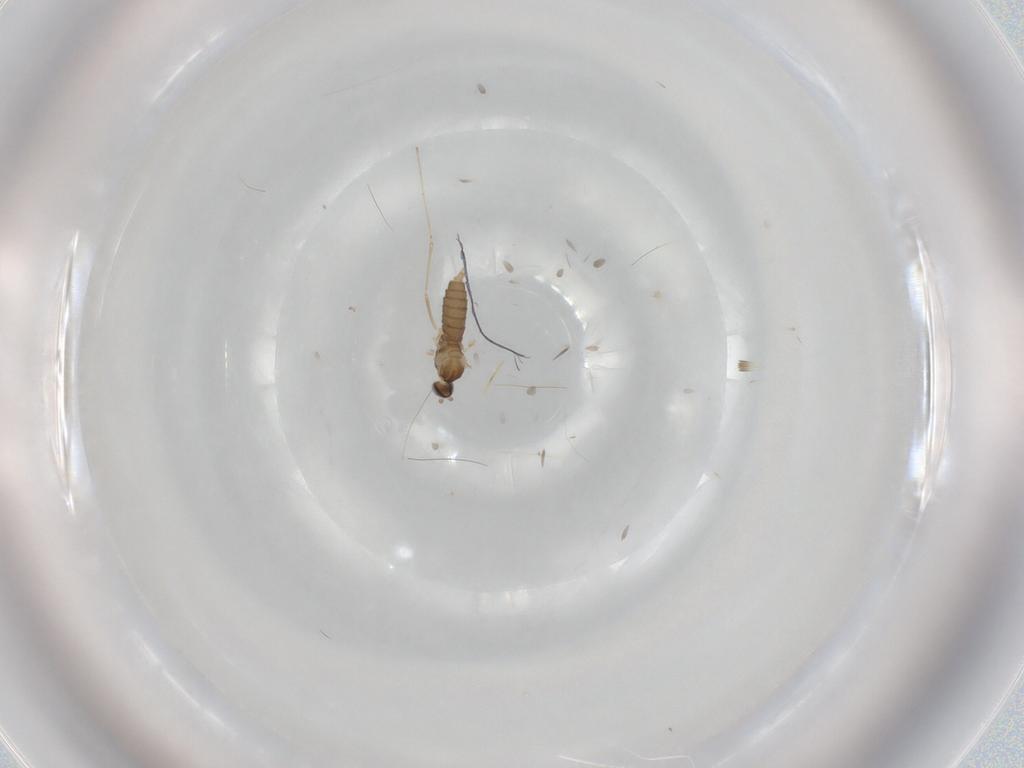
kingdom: Animalia
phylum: Arthropoda
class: Insecta
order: Diptera
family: Cecidomyiidae
